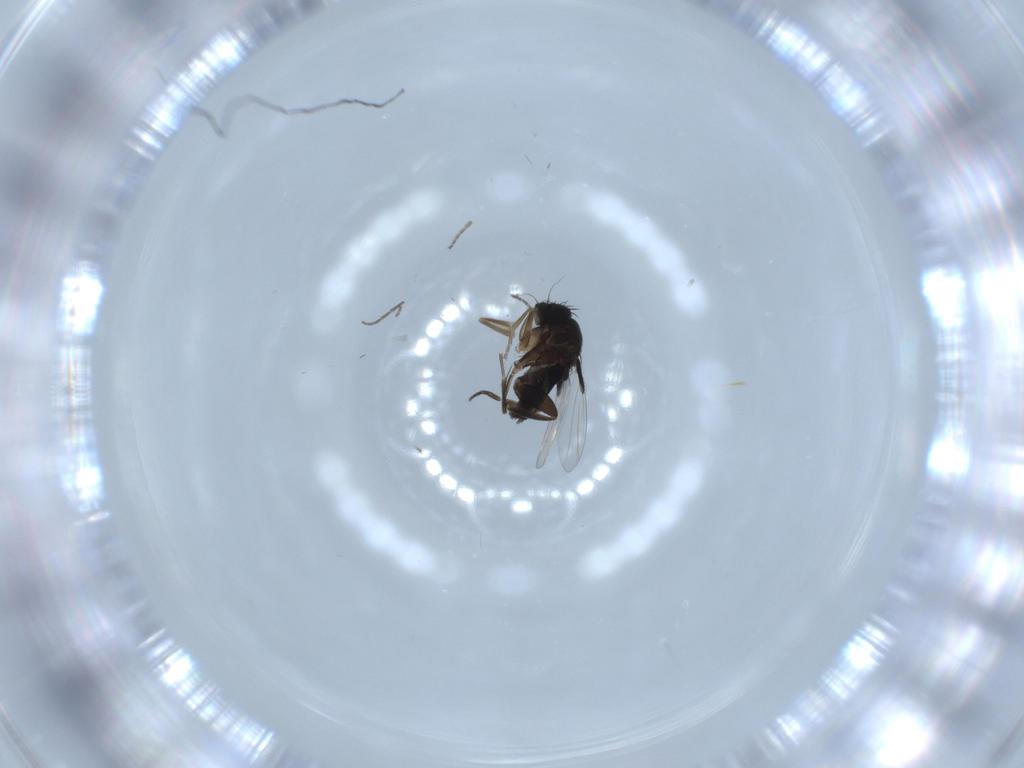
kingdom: Animalia
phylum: Arthropoda
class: Insecta
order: Diptera
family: Phoridae
